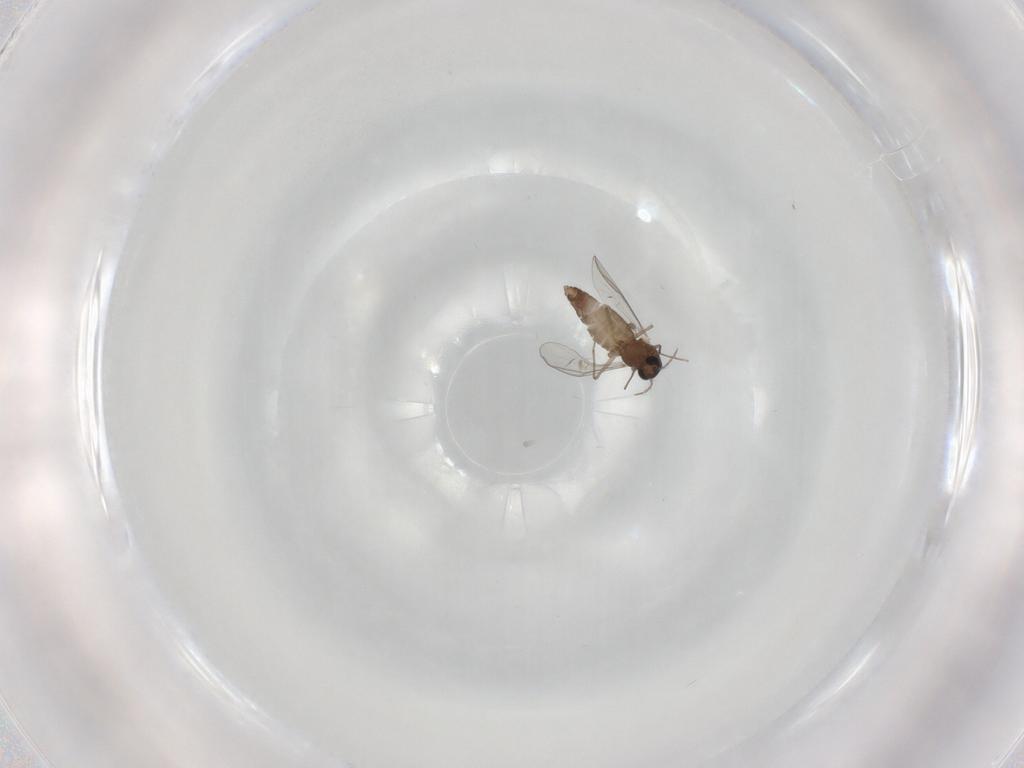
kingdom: Animalia
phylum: Arthropoda
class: Insecta
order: Diptera
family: Chironomidae
